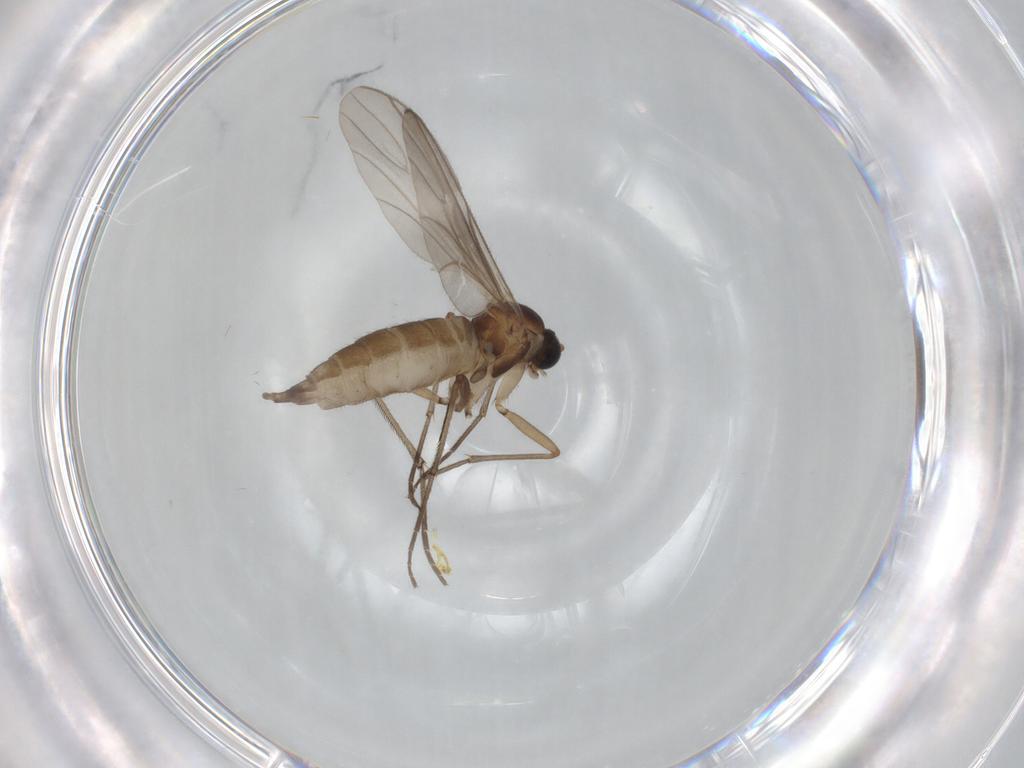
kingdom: Animalia
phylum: Arthropoda
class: Insecta
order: Diptera
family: Sciaridae
